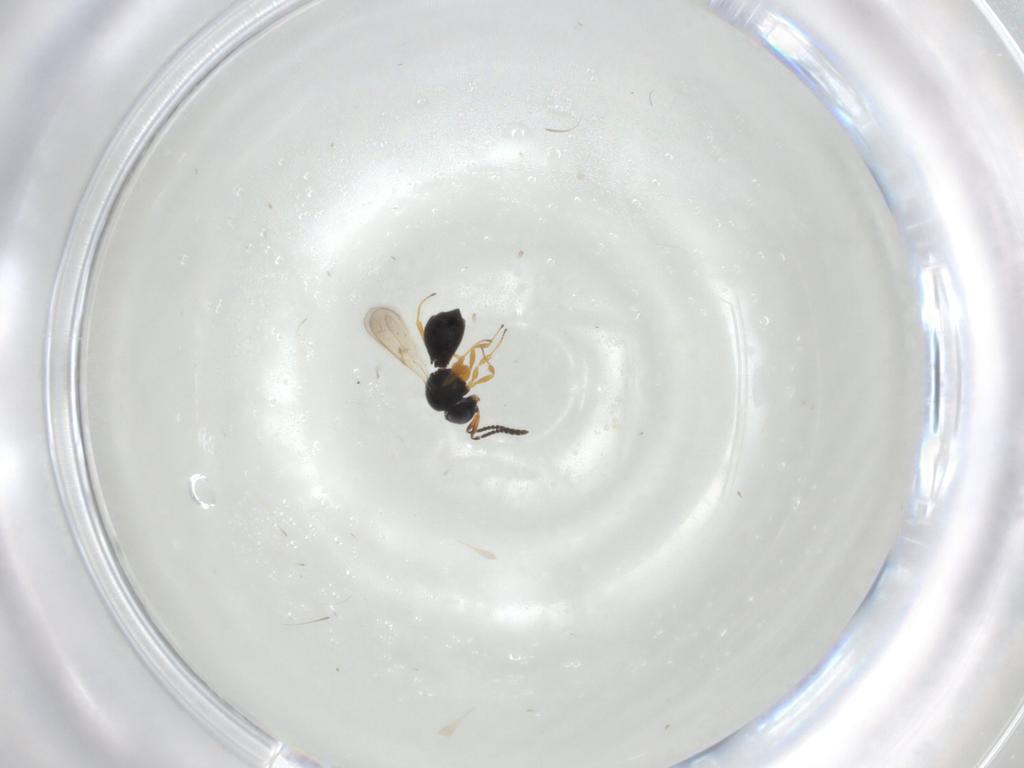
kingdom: Animalia
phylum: Arthropoda
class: Insecta
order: Hymenoptera
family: Scelionidae
